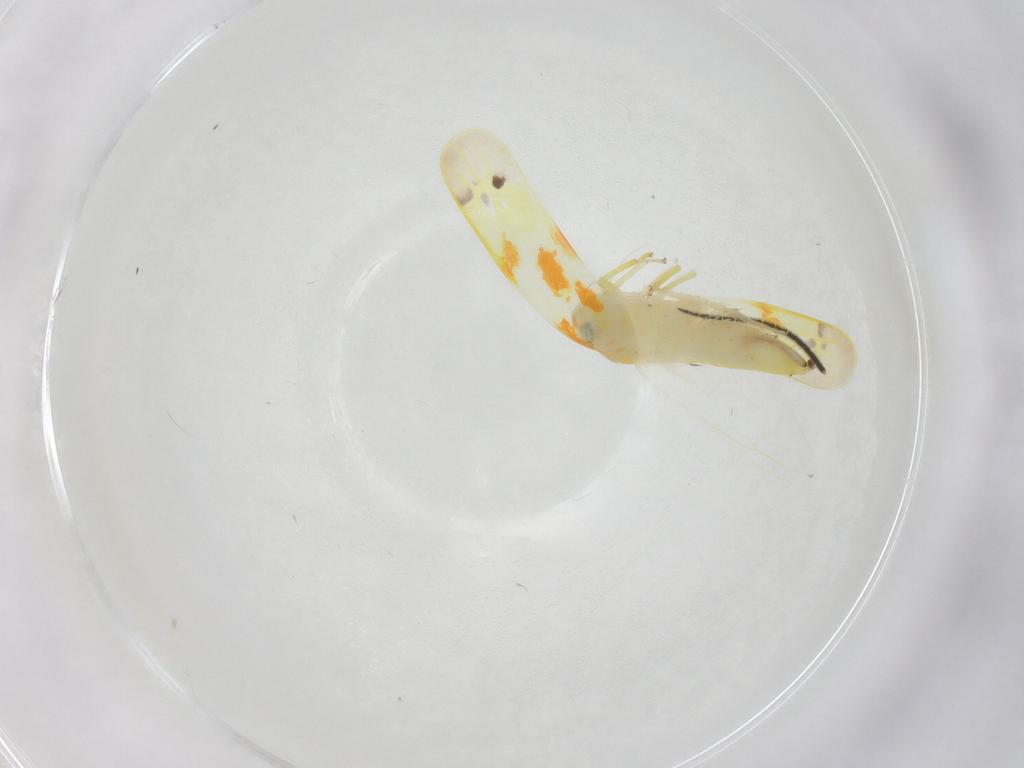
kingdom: Animalia
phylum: Arthropoda
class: Insecta
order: Hemiptera
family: Cicadellidae
